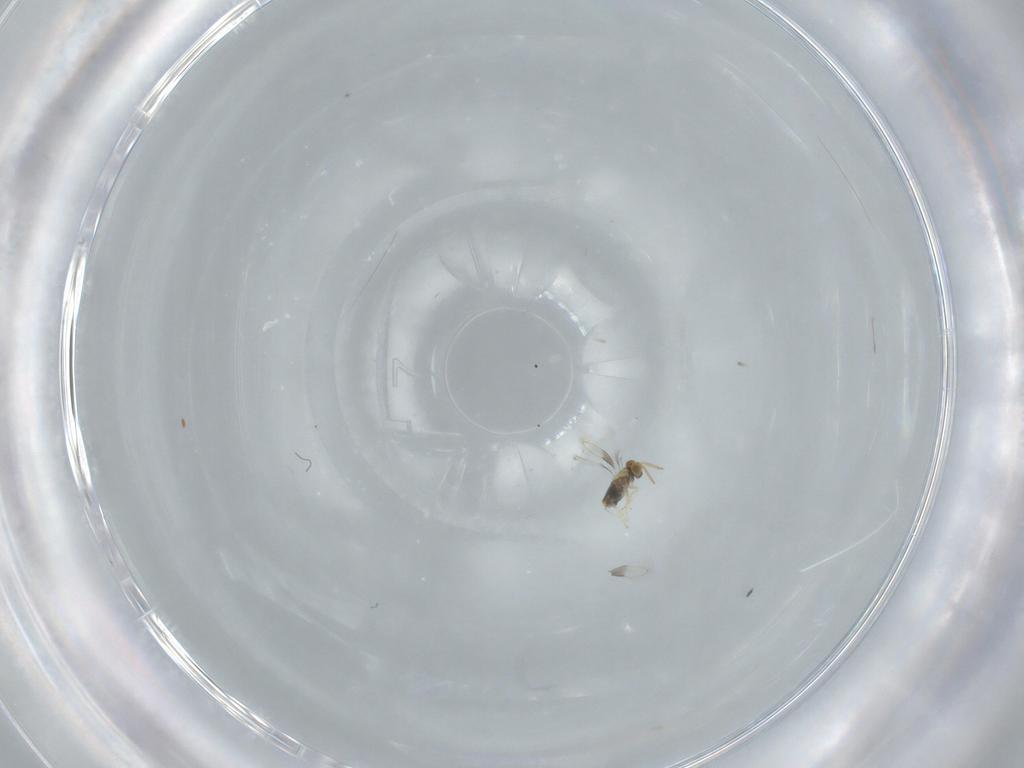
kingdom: Animalia
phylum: Arthropoda
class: Insecta
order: Hymenoptera
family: Aphelinidae
